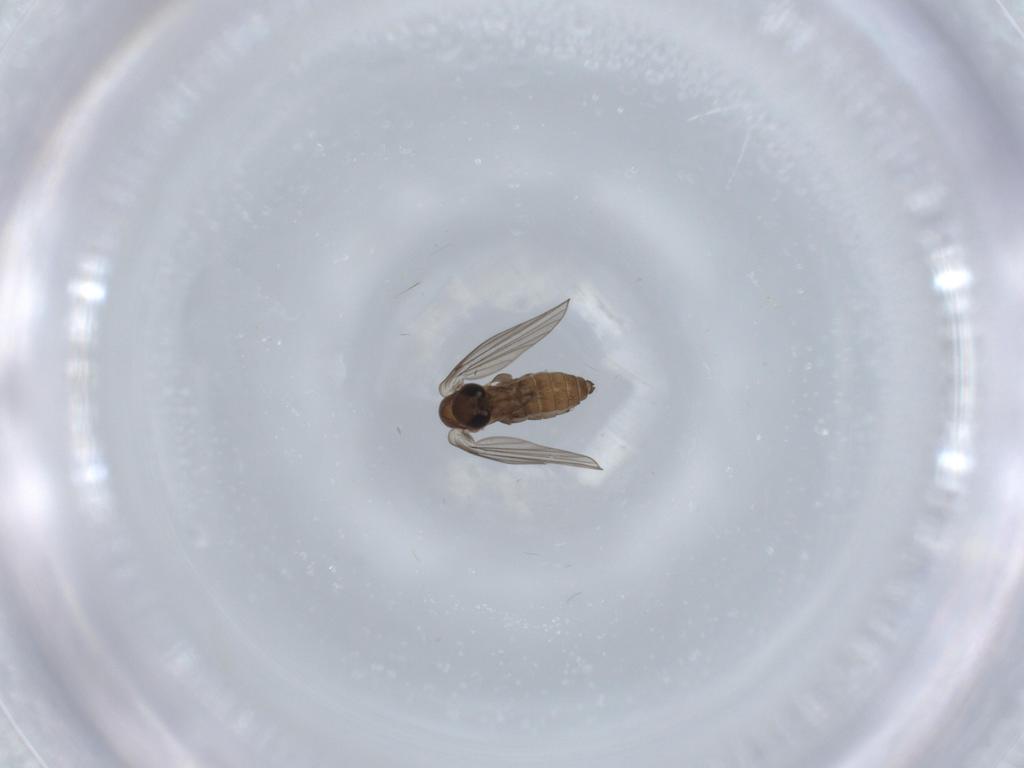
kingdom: Animalia
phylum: Arthropoda
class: Insecta
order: Diptera
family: Psychodidae
